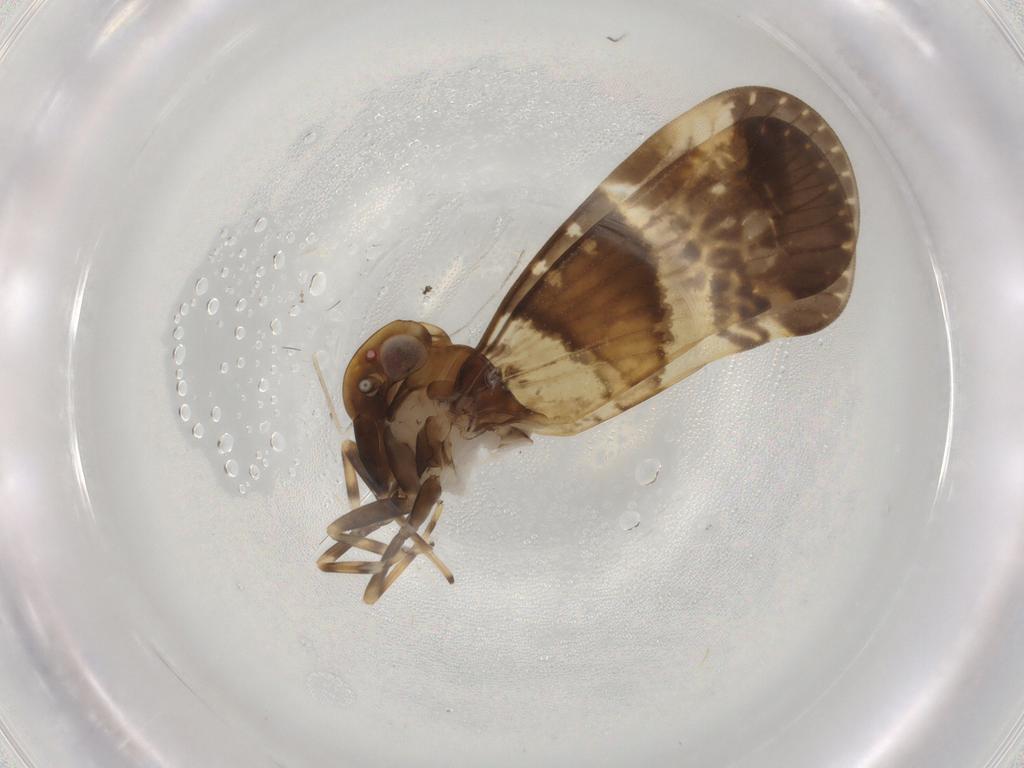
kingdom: Animalia
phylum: Arthropoda
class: Insecta
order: Hemiptera
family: Cixiidae
